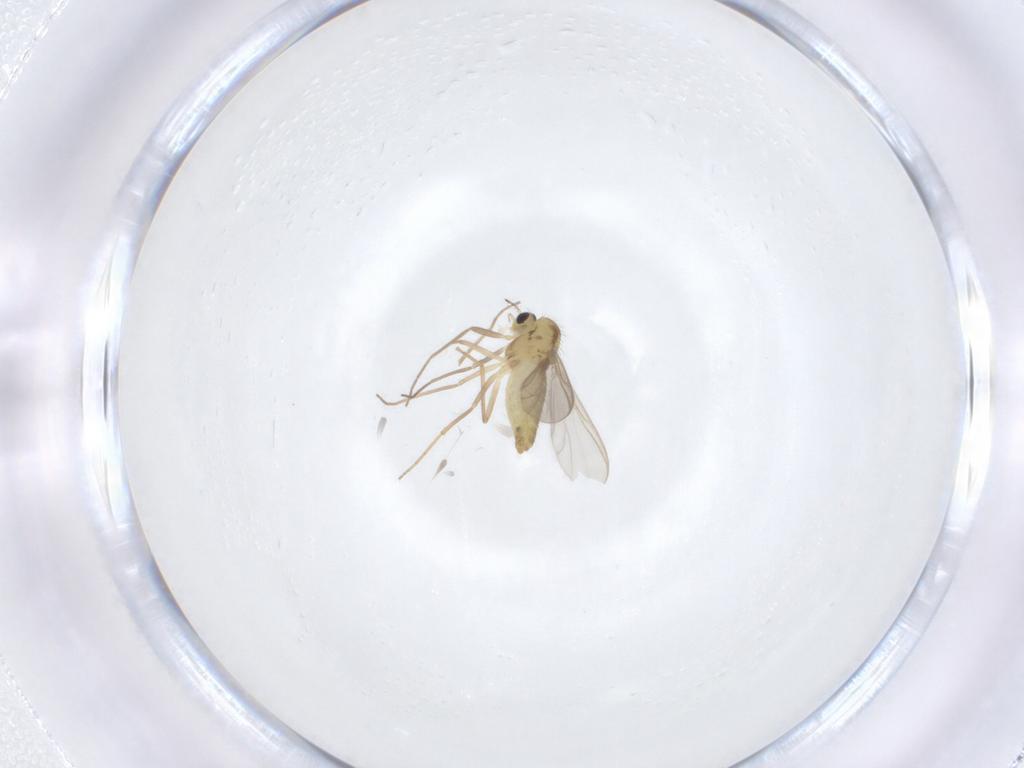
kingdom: Animalia
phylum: Arthropoda
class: Insecta
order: Diptera
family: Chironomidae
